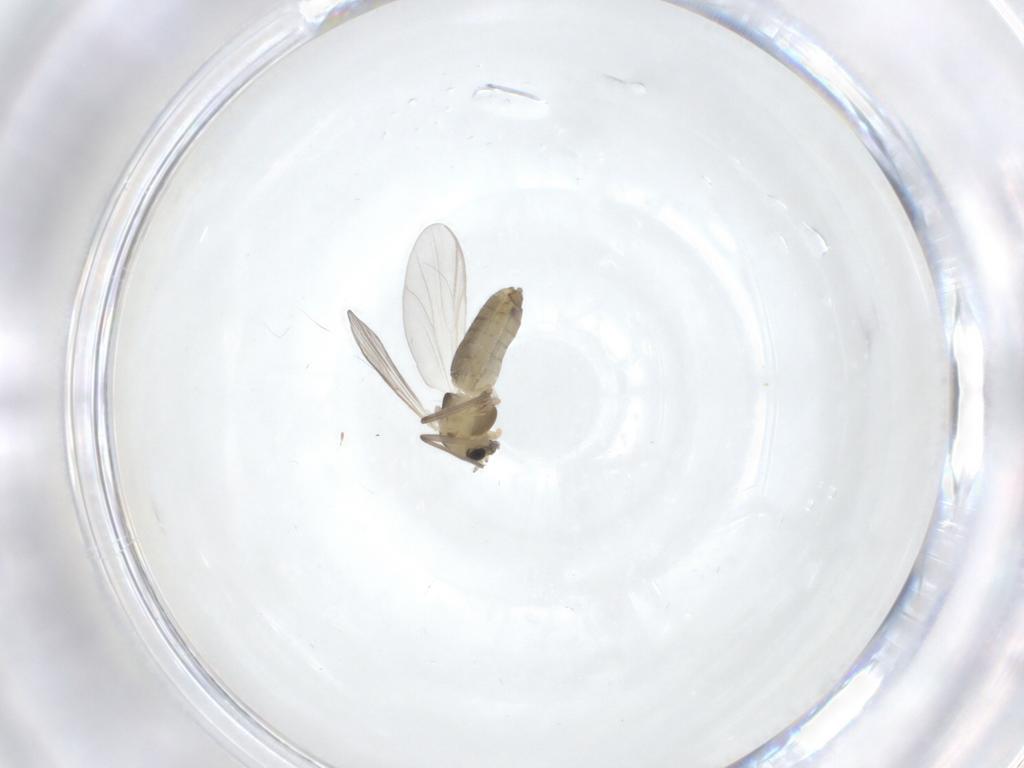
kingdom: Animalia
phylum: Arthropoda
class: Insecta
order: Diptera
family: Chironomidae
